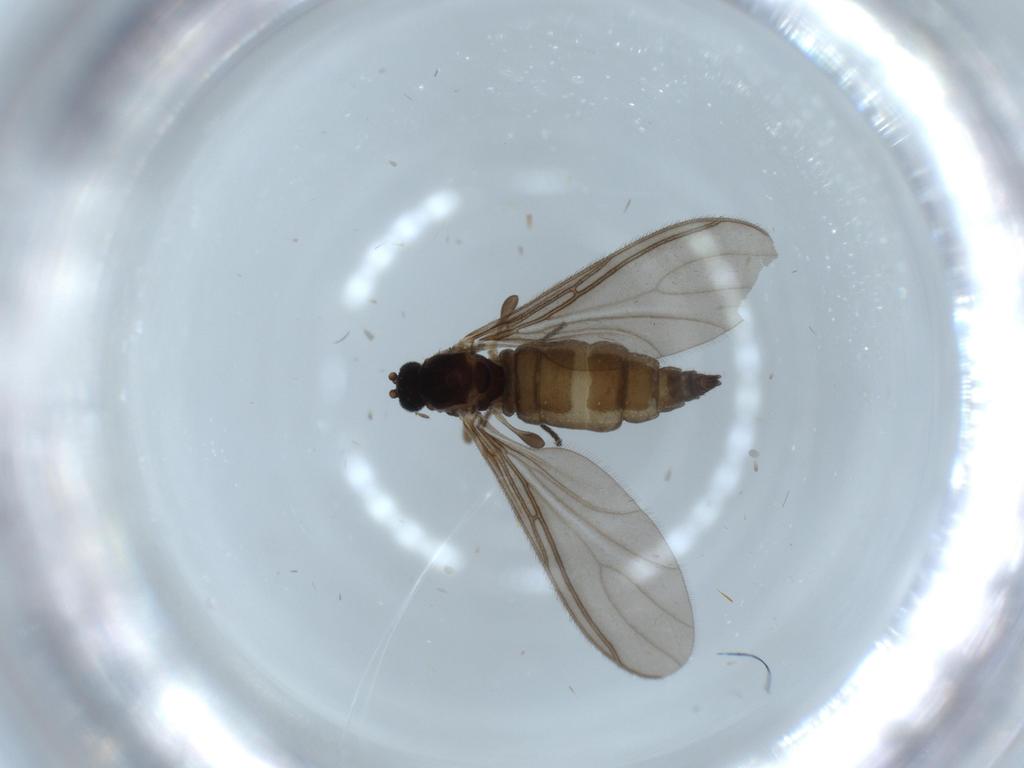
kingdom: Animalia
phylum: Arthropoda
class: Insecta
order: Diptera
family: Sciaridae
